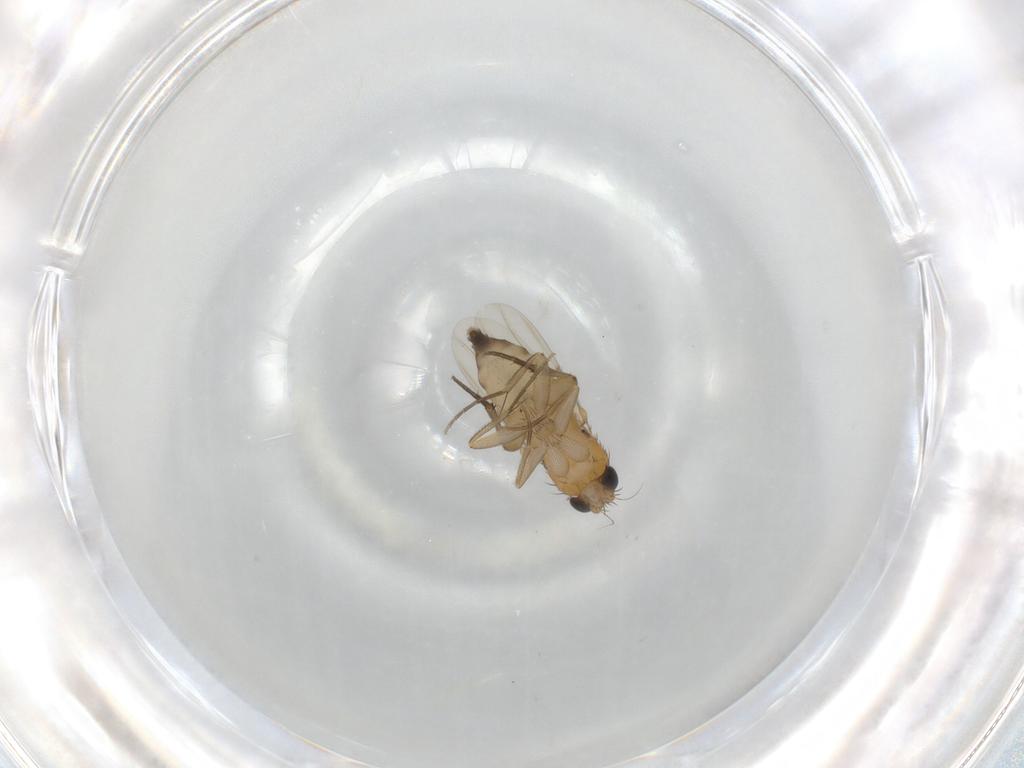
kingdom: Animalia
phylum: Arthropoda
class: Insecta
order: Diptera
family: Phoridae
